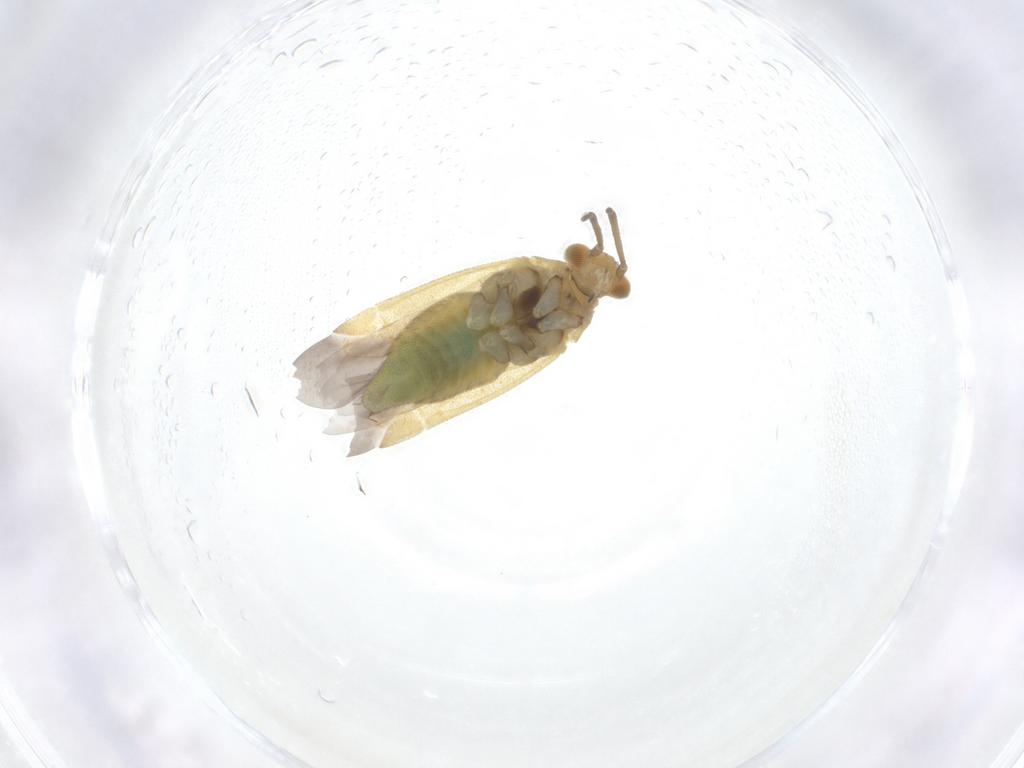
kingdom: Animalia
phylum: Arthropoda
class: Insecta
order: Hemiptera
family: Miridae
